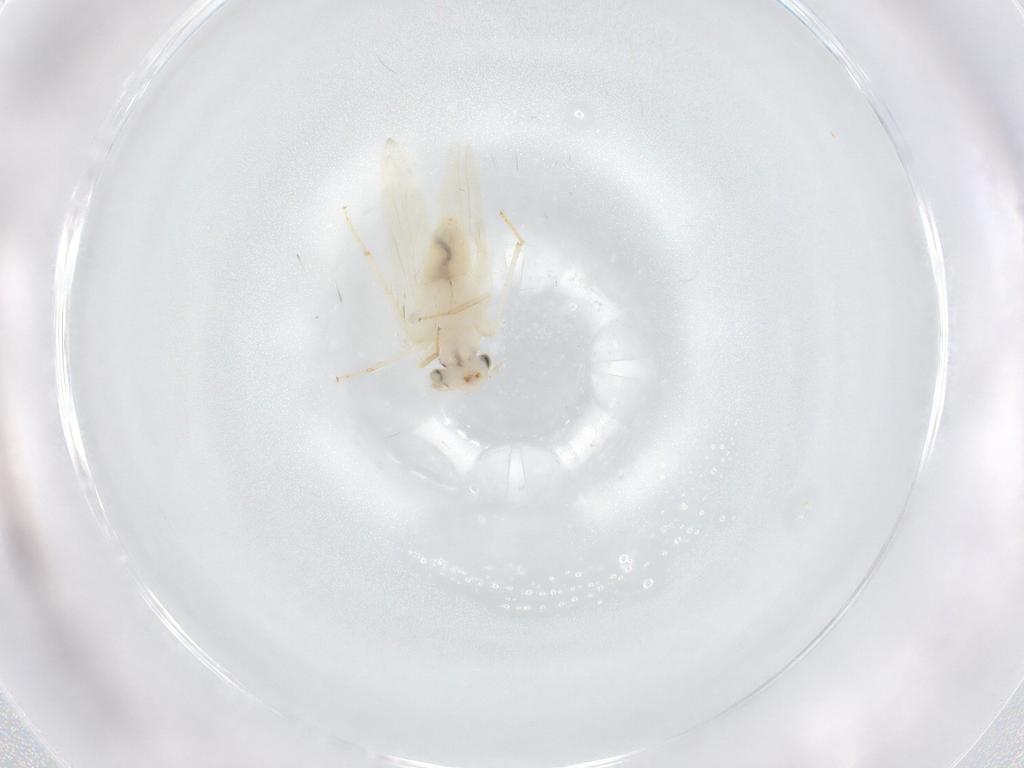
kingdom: Animalia
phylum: Arthropoda
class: Insecta
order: Psocodea
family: Lepidopsocidae
